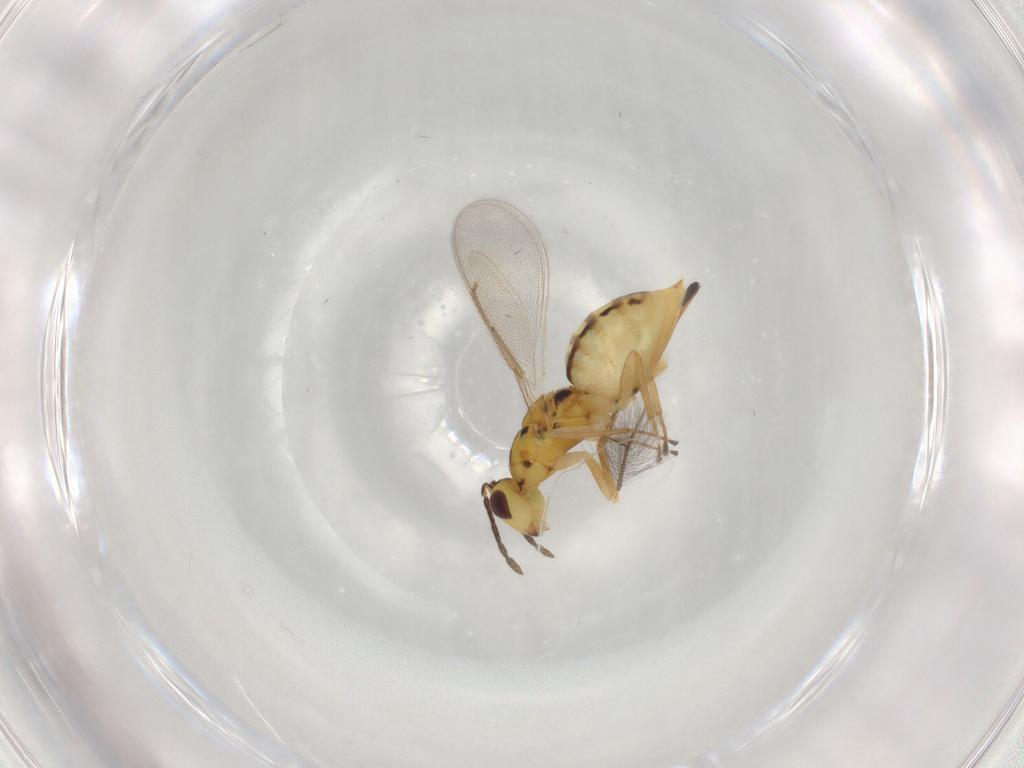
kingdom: Animalia
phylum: Arthropoda
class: Insecta
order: Hymenoptera
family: Eulophidae
